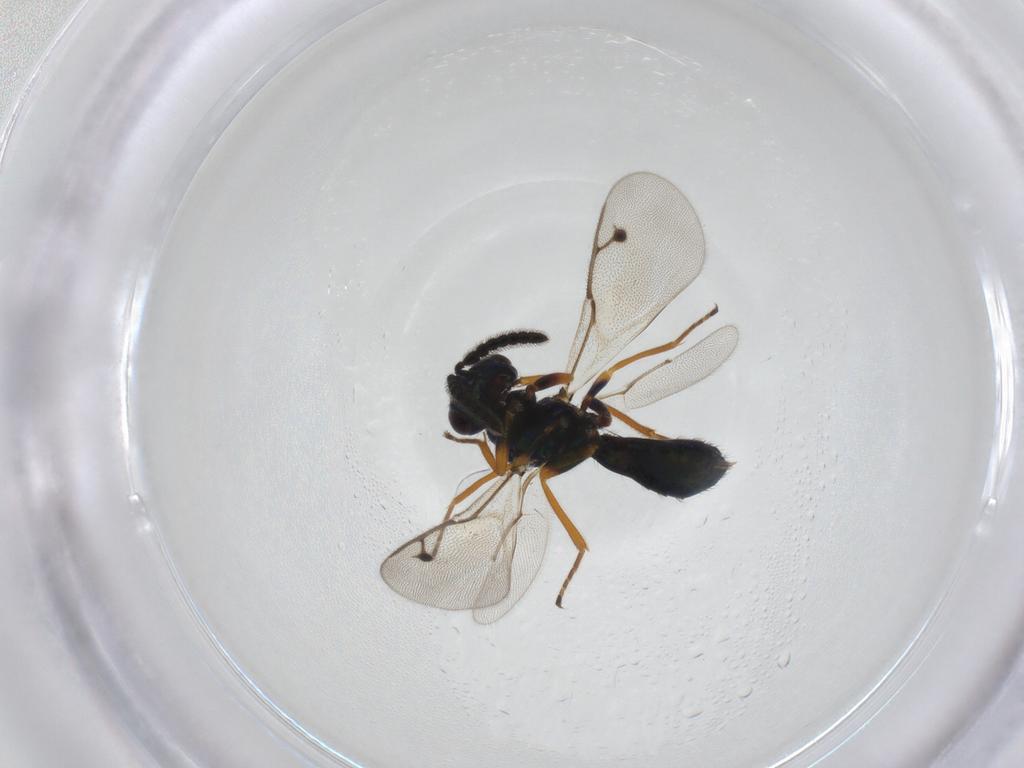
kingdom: Animalia
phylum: Arthropoda
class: Insecta
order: Hymenoptera
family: Pirenidae
